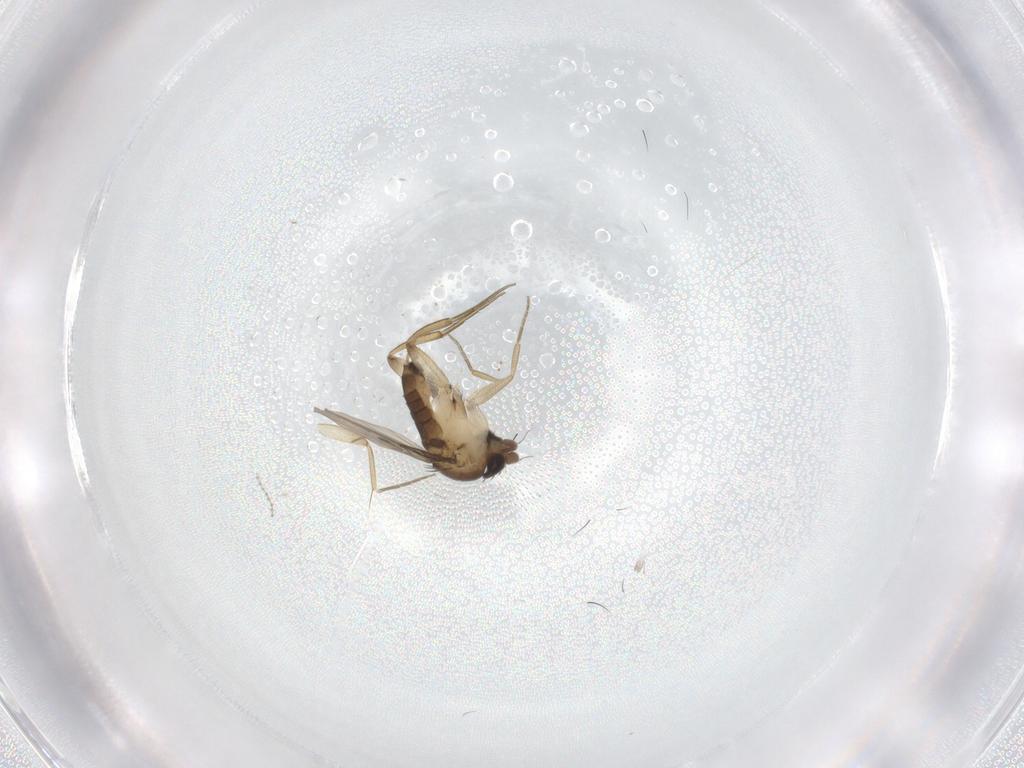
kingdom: Animalia
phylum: Arthropoda
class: Insecta
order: Diptera
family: Phoridae
